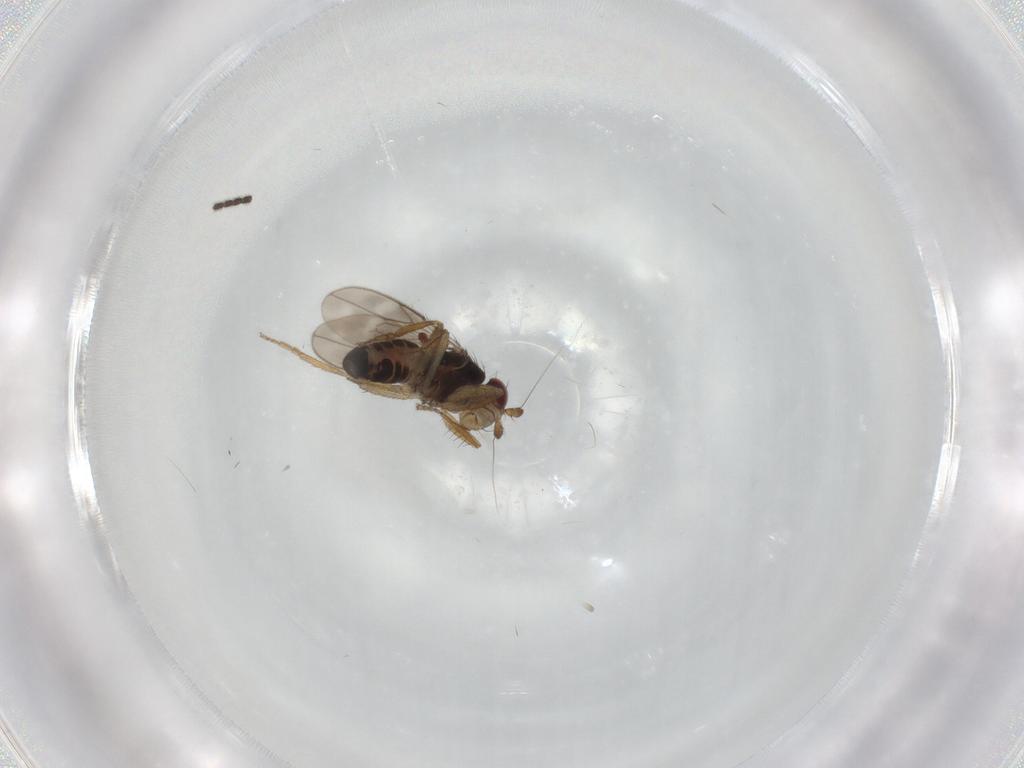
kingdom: Animalia
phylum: Arthropoda
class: Insecta
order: Diptera
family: Sphaeroceridae
